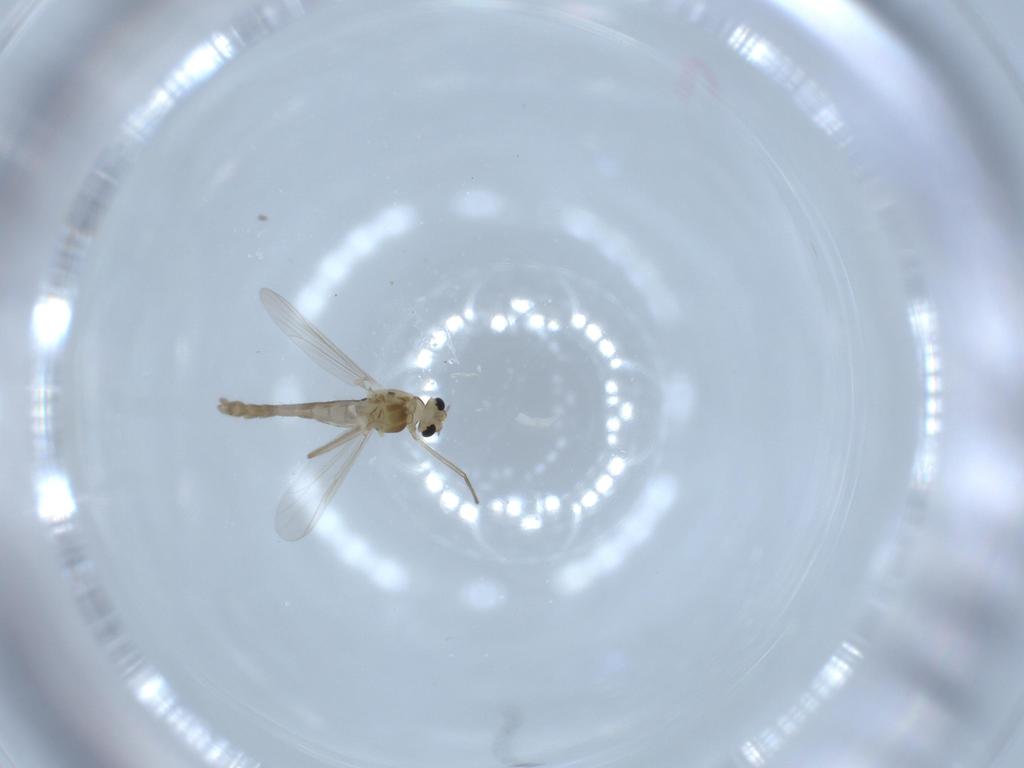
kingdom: Animalia
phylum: Arthropoda
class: Insecta
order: Diptera
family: Chironomidae
